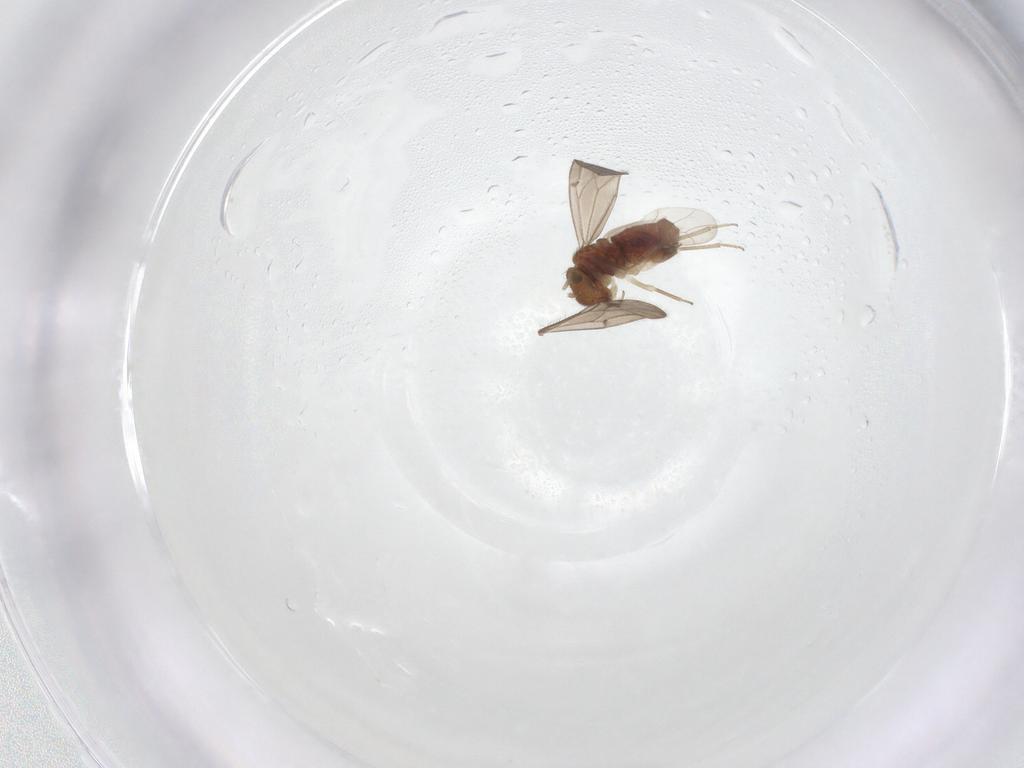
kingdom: Animalia
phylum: Arthropoda
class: Insecta
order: Psocodea
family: Ectopsocidae
